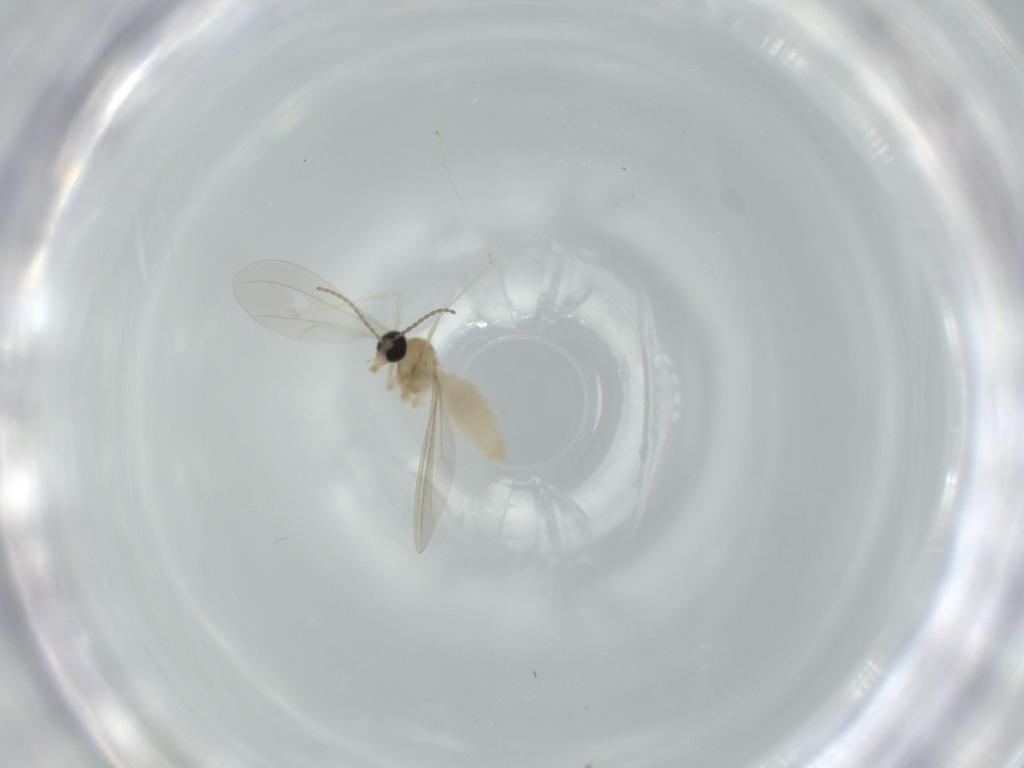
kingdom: Animalia
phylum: Arthropoda
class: Insecta
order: Diptera
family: Cecidomyiidae
